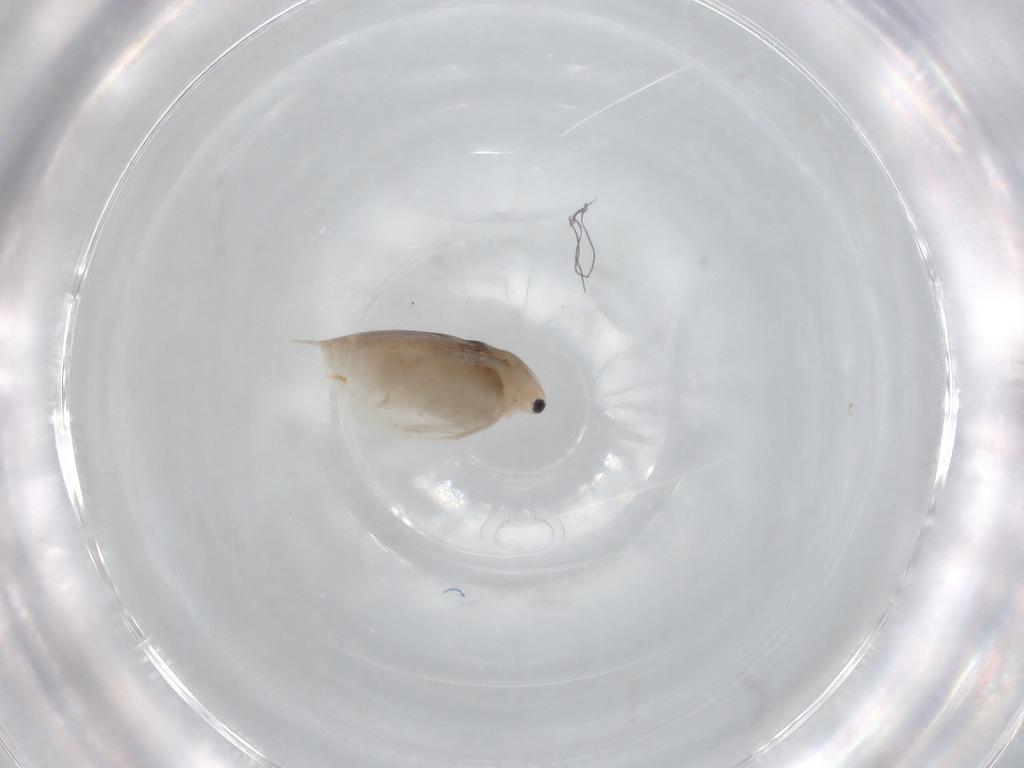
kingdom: Animalia
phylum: Arthropoda
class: Branchiopoda
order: Diplostraca
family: Daphniidae
